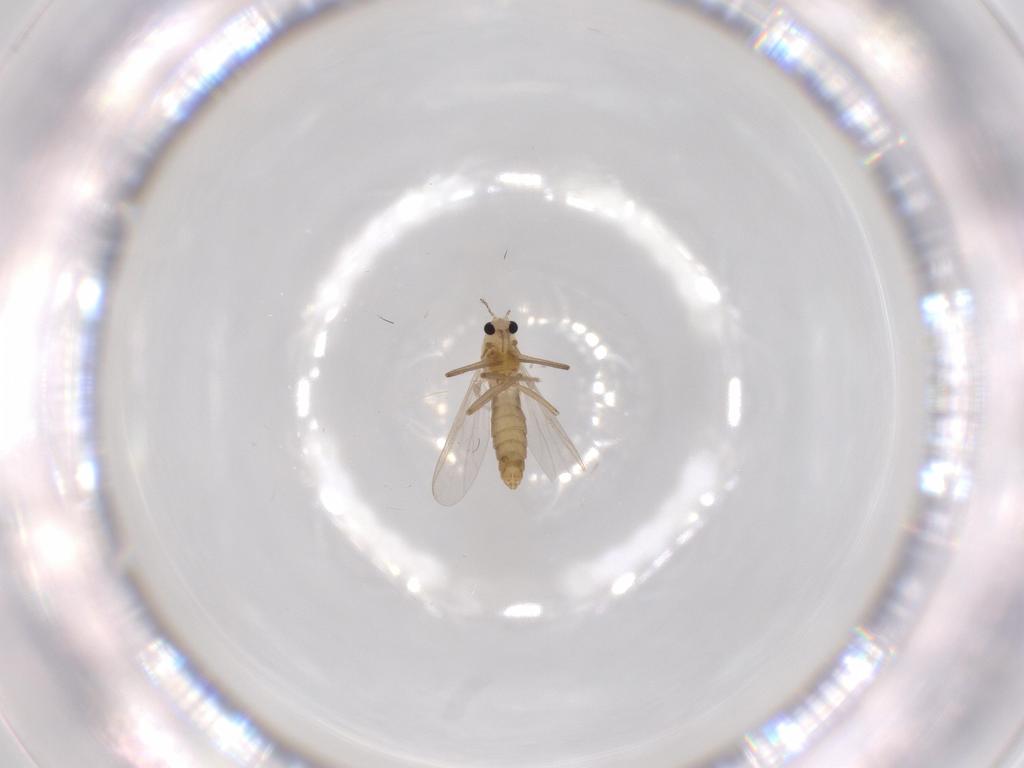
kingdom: Animalia
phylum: Arthropoda
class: Insecta
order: Diptera
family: Chironomidae
